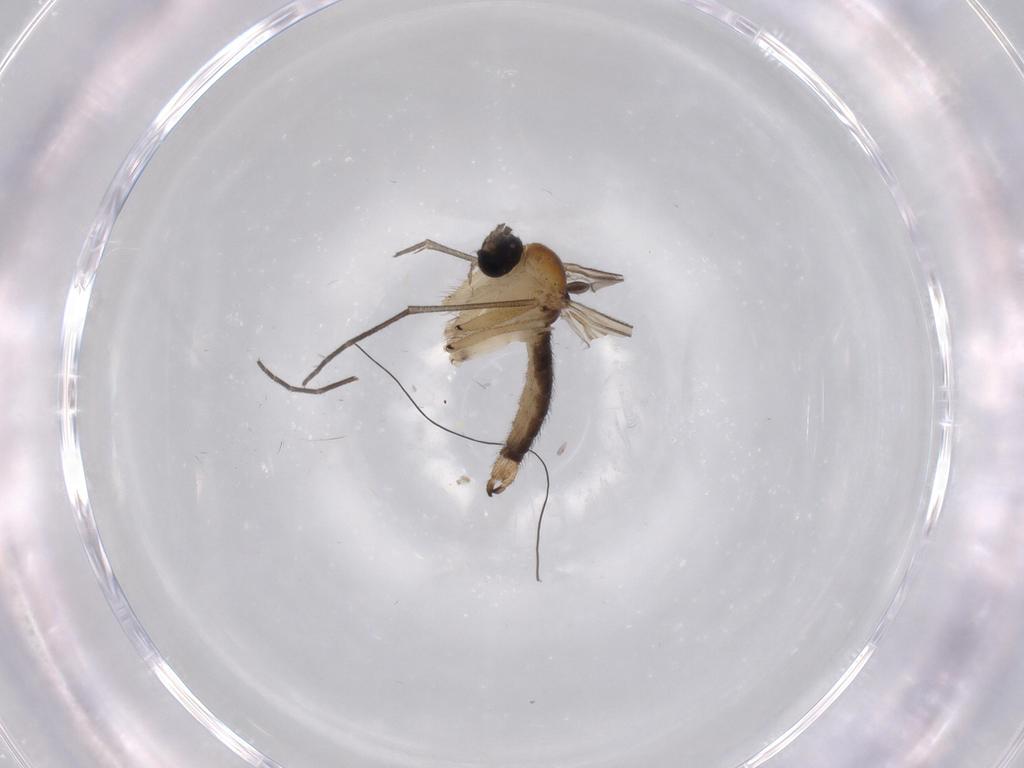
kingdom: Animalia
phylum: Arthropoda
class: Insecta
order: Diptera
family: Sciaridae
